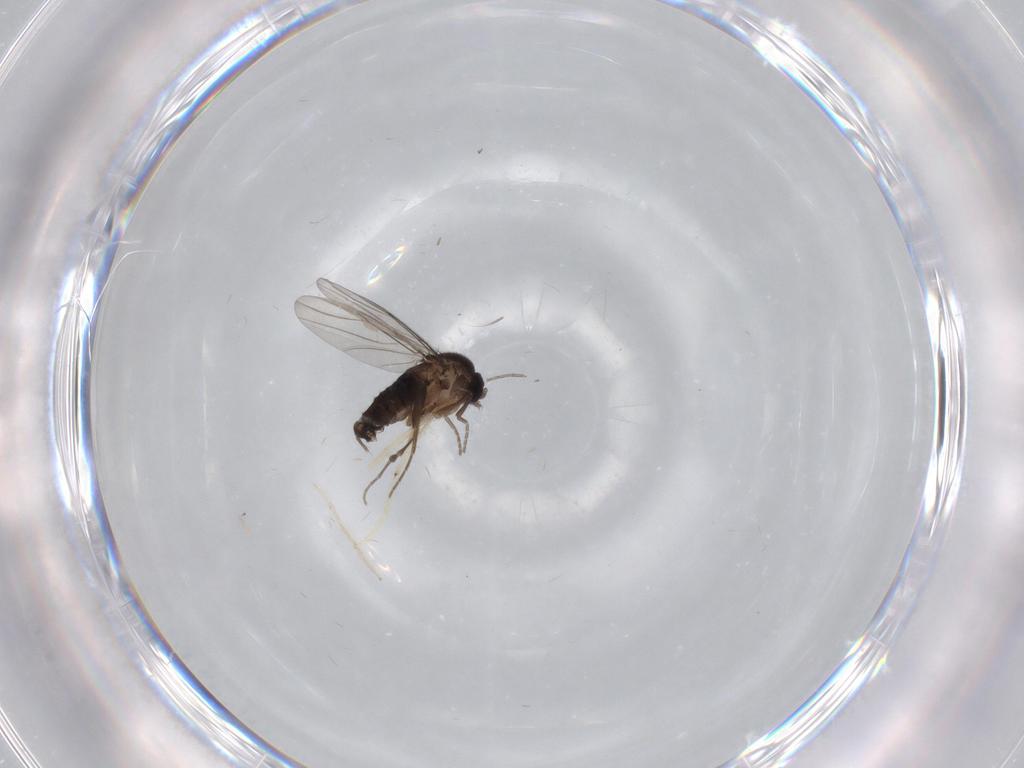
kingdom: Animalia
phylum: Arthropoda
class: Insecta
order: Diptera
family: Phoridae
